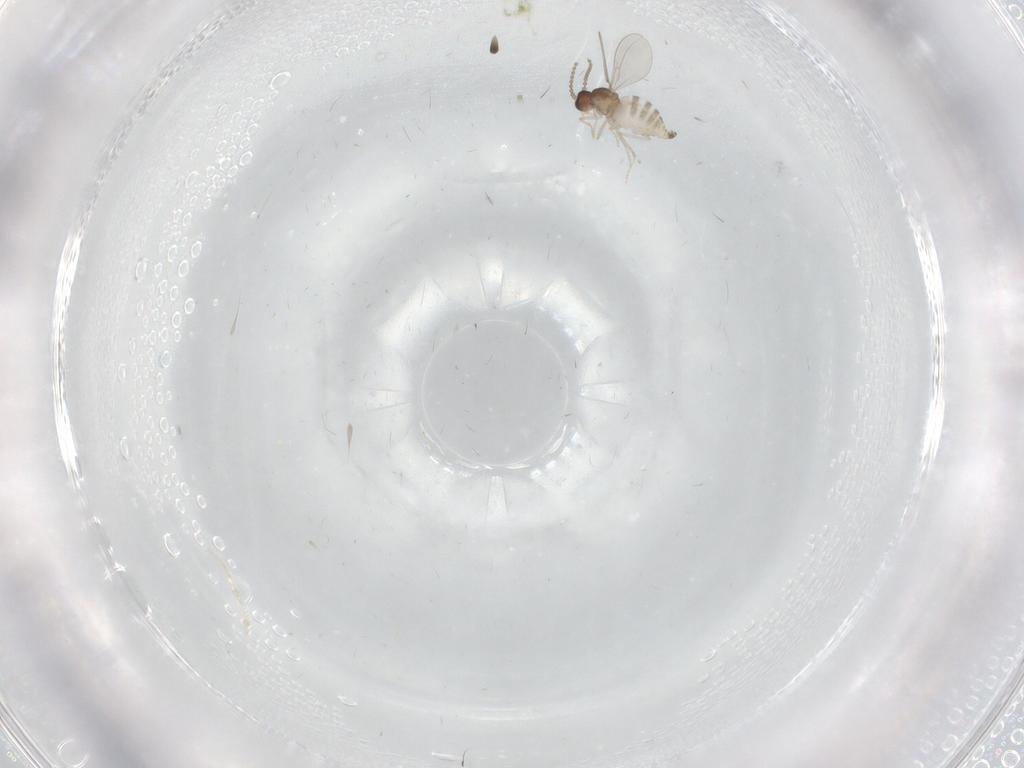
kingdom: Animalia
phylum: Arthropoda
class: Insecta
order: Diptera
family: Cecidomyiidae
